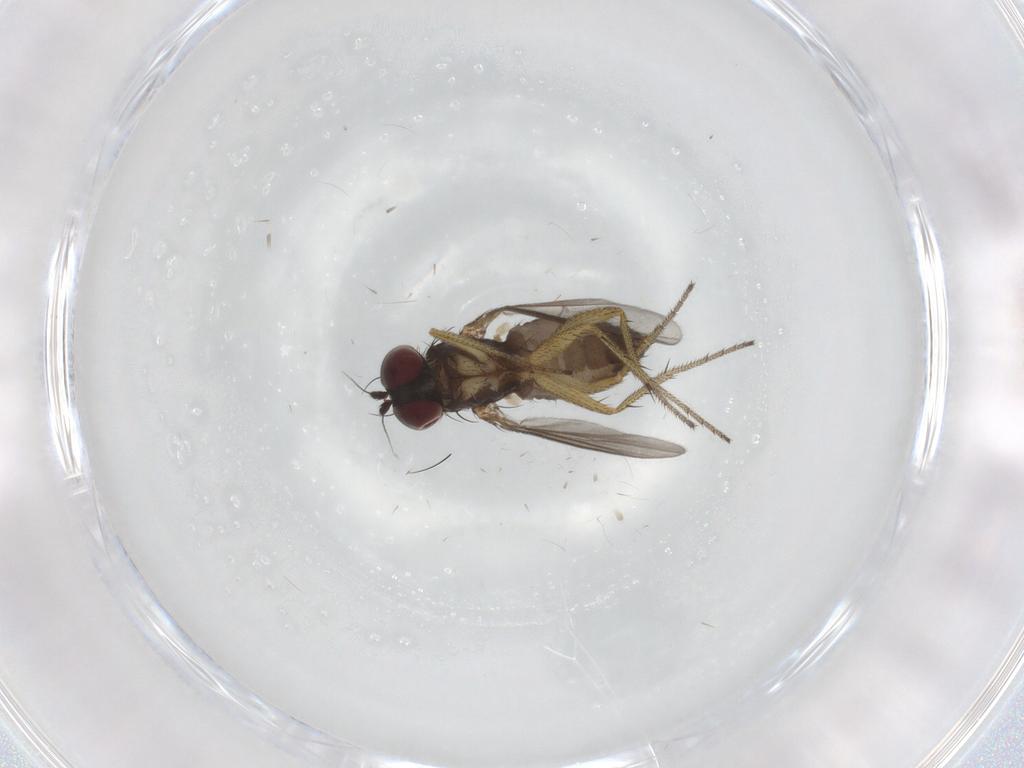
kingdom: Animalia
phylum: Arthropoda
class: Insecta
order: Diptera
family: Dolichopodidae
